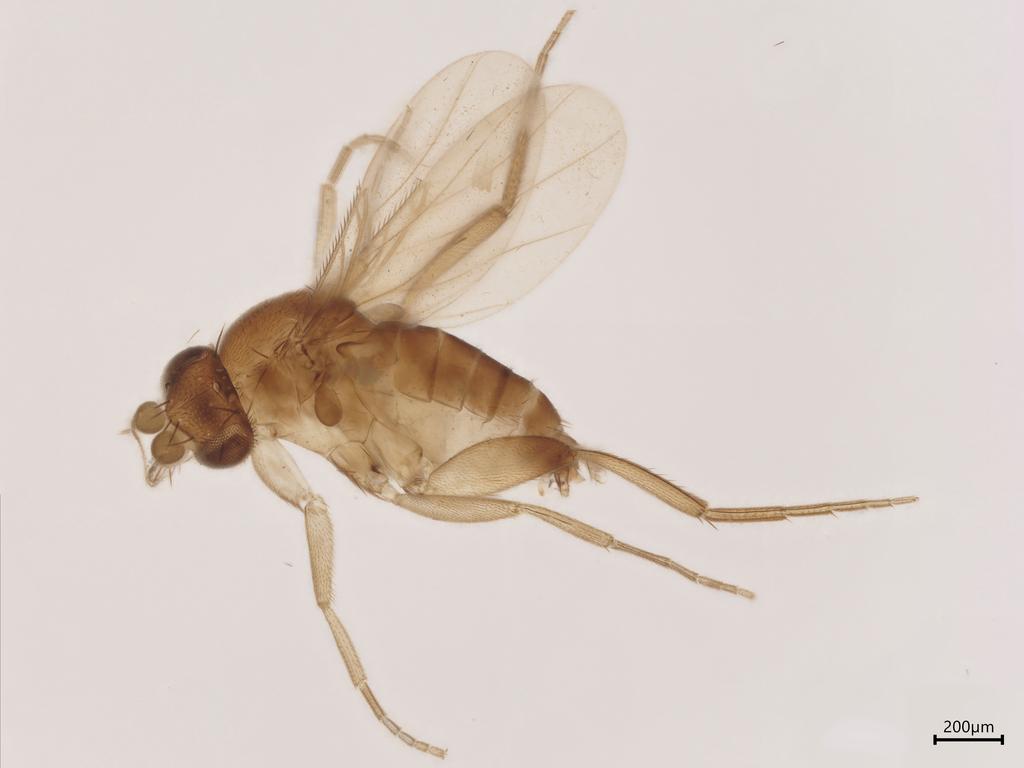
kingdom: Animalia
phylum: Arthropoda
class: Insecta
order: Diptera
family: Phoridae
